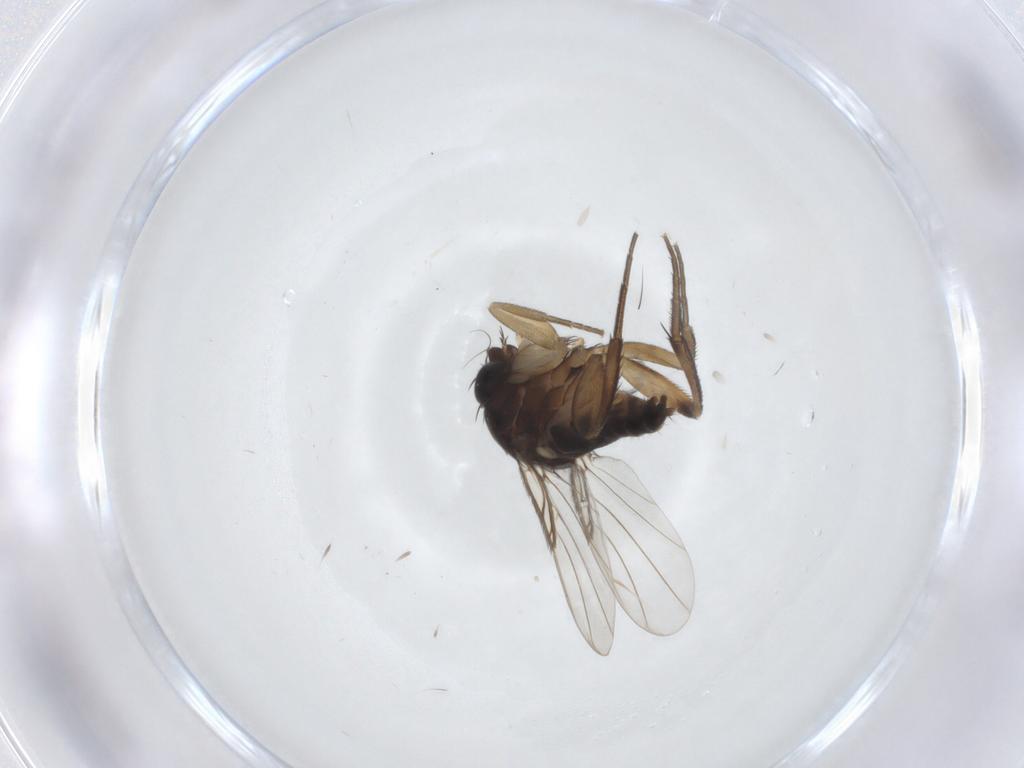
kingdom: Animalia
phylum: Arthropoda
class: Insecta
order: Diptera
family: Phoridae
